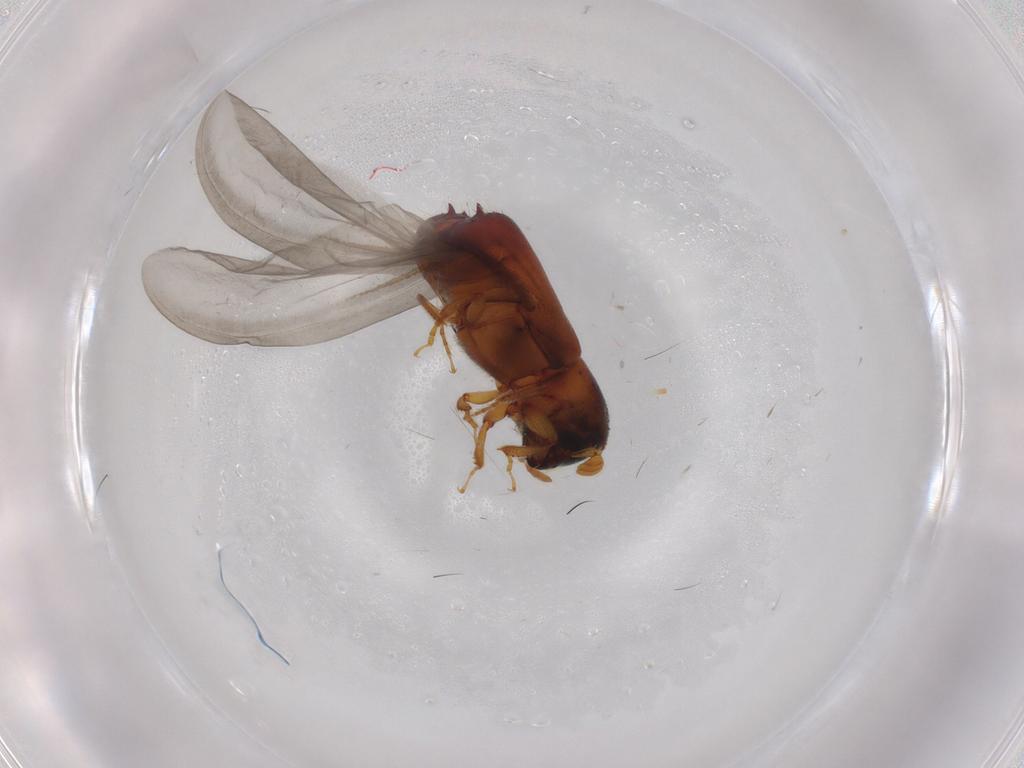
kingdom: Animalia
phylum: Arthropoda
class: Insecta
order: Coleoptera
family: Curculionidae
